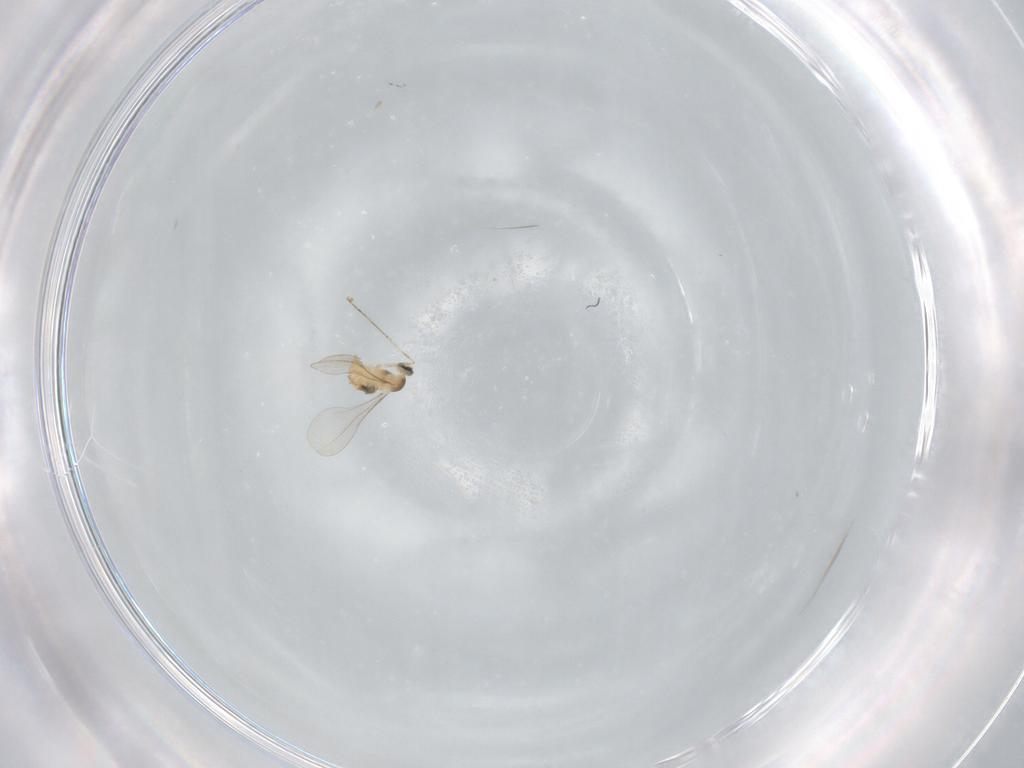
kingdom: Animalia
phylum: Arthropoda
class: Insecta
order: Diptera
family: Cecidomyiidae
